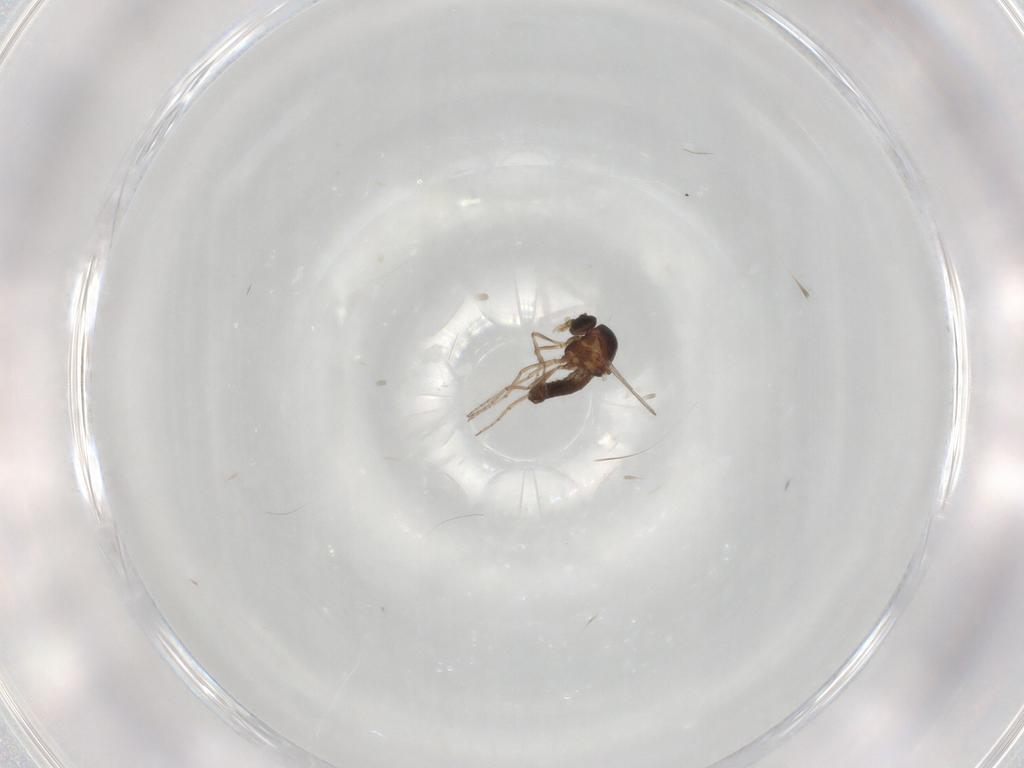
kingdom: Animalia
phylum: Arthropoda
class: Insecta
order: Diptera
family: Ceratopogonidae
